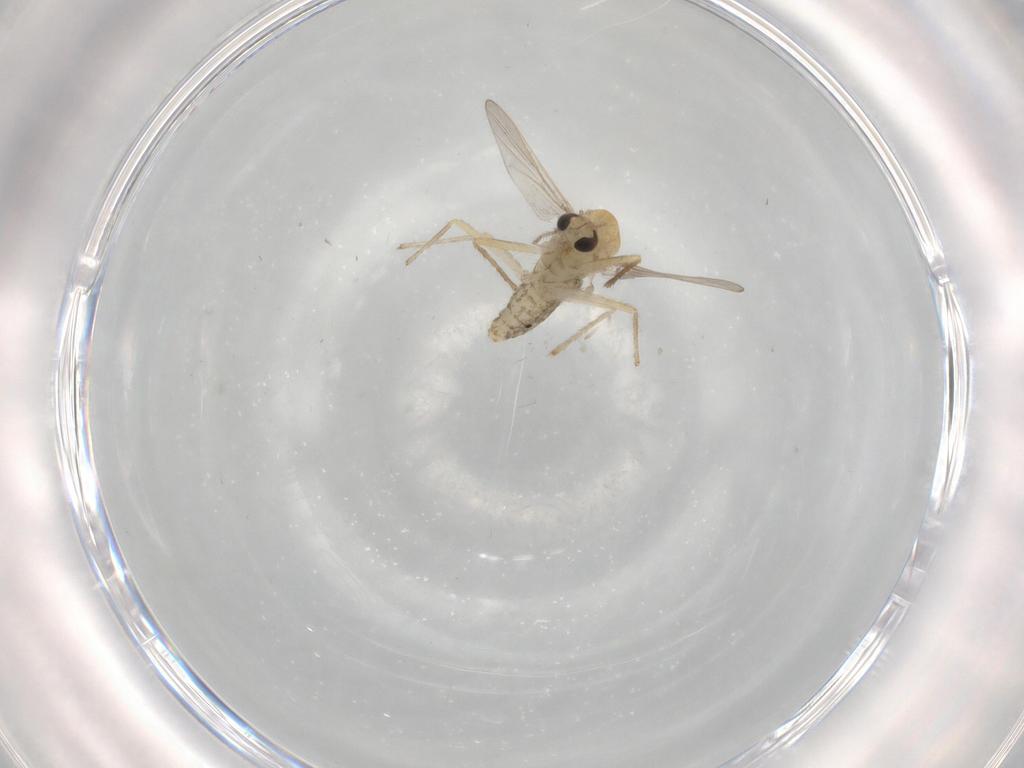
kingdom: Animalia
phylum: Arthropoda
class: Insecta
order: Diptera
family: Chironomidae
